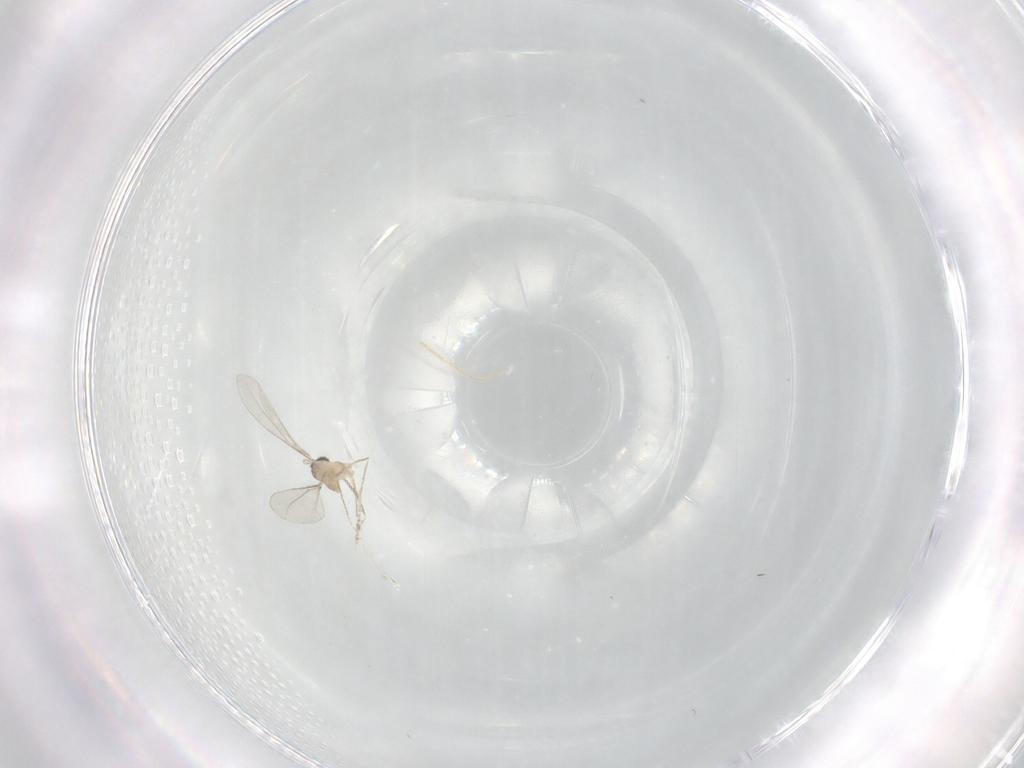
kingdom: Animalia
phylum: Arthropoda
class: Insecta
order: Diptera
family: Cecidomyiidae
